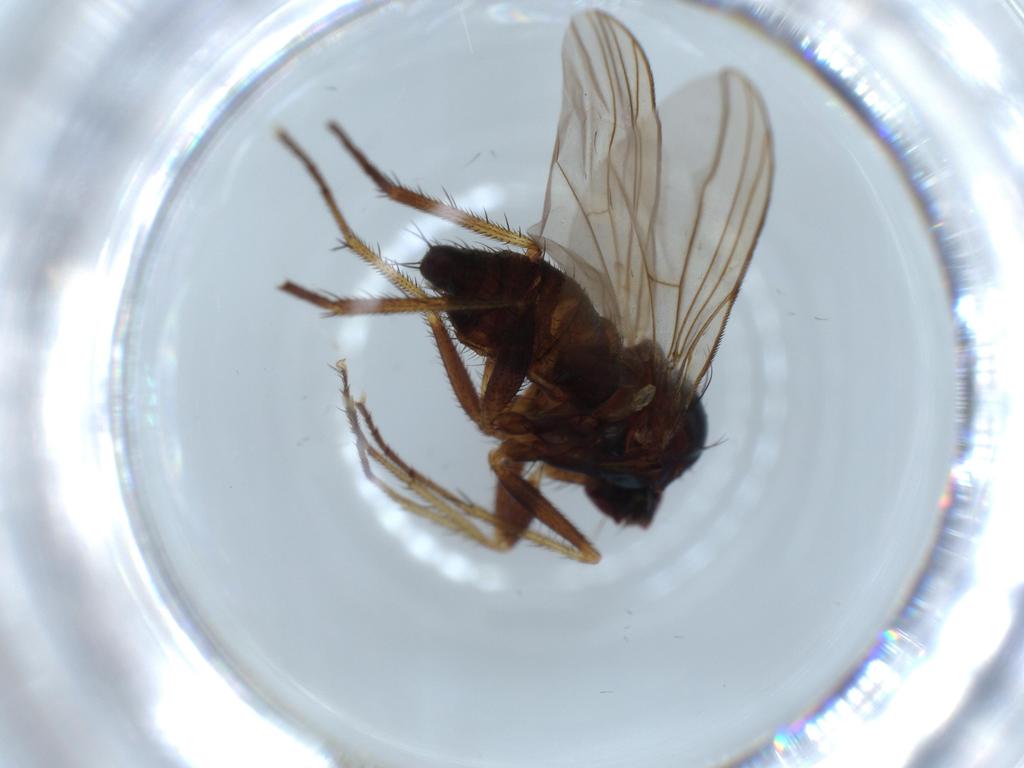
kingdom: Animalia
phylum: Arthropoda
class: Insecta
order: Diptera
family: Dolichopodidae
